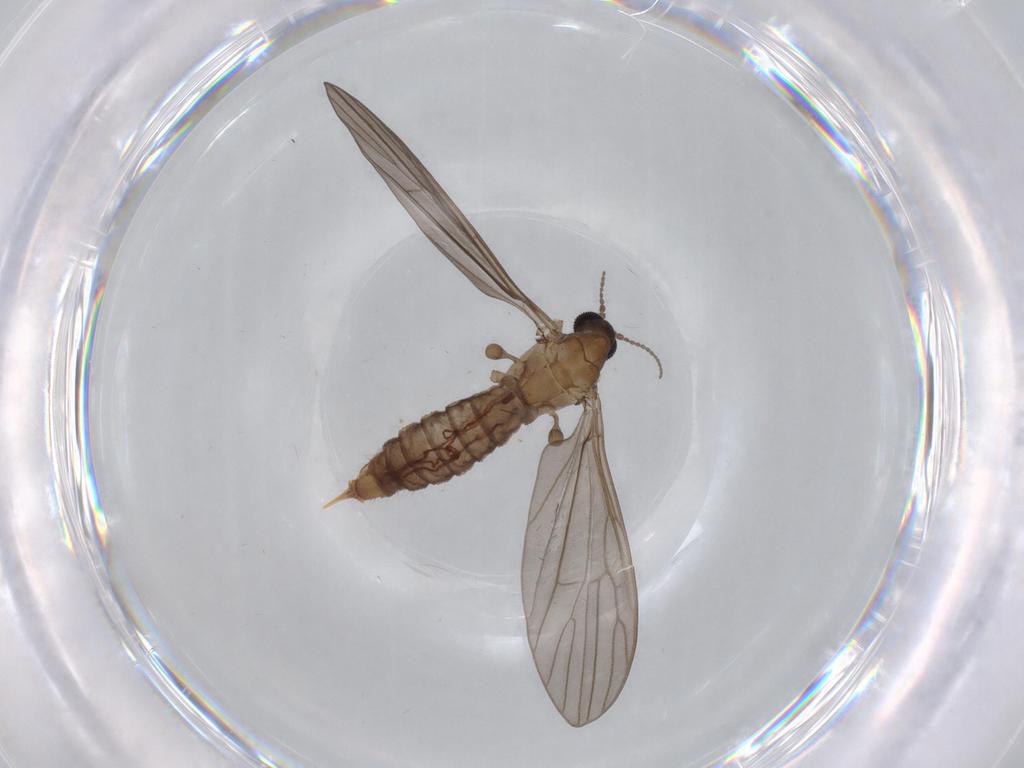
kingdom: Animalia
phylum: Arthropoda
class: Insecta
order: Diptera
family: Limoniidae
